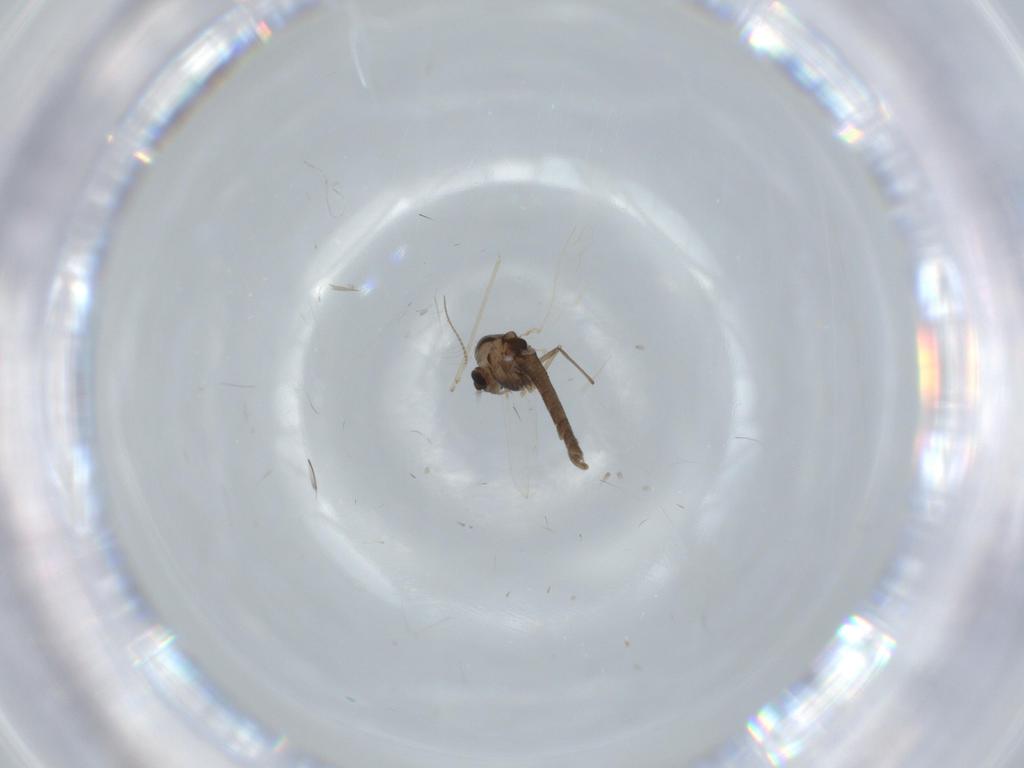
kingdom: Animalia
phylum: Arthropoda
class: Insecta
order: Diptera
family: Chironomidae
